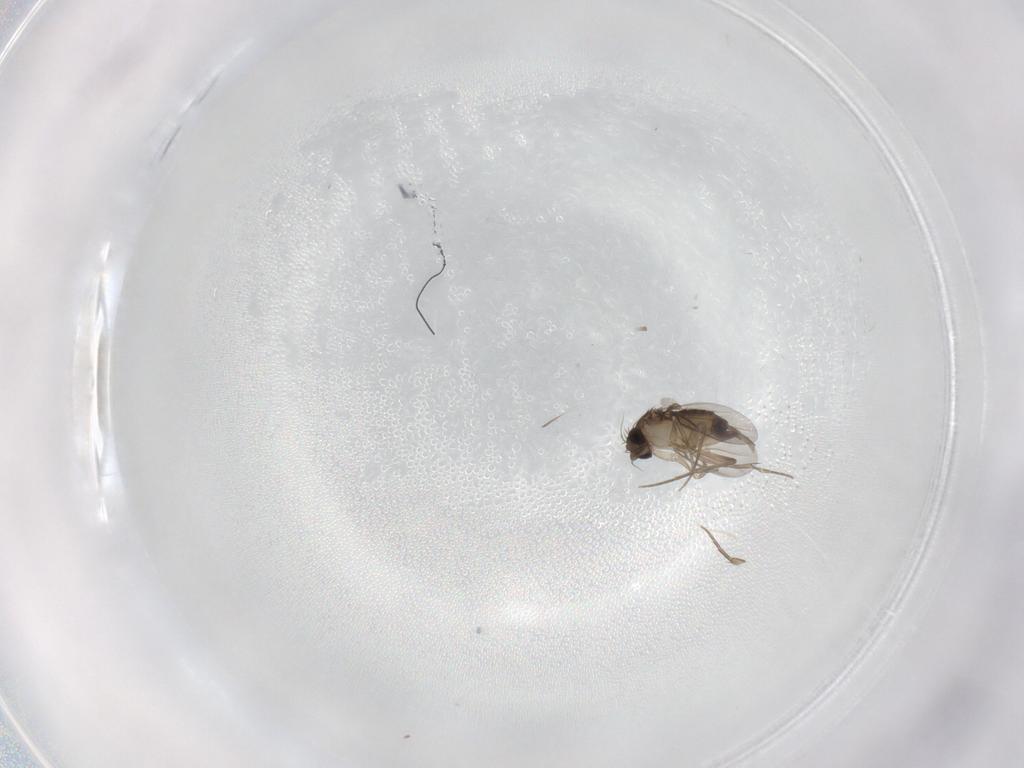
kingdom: Animalia
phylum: Arthropoda
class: Insecta
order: Diptera
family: Phoridae
